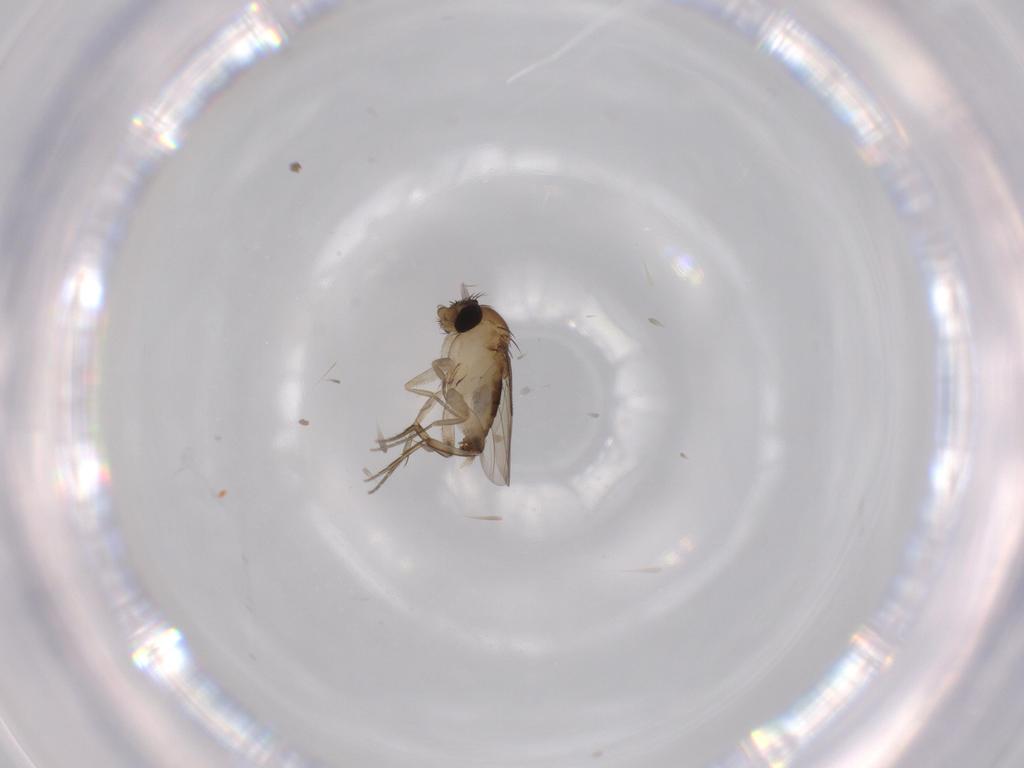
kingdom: Animalia
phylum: Arthropoda
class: Insecta
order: Diptera
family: Phoridae
